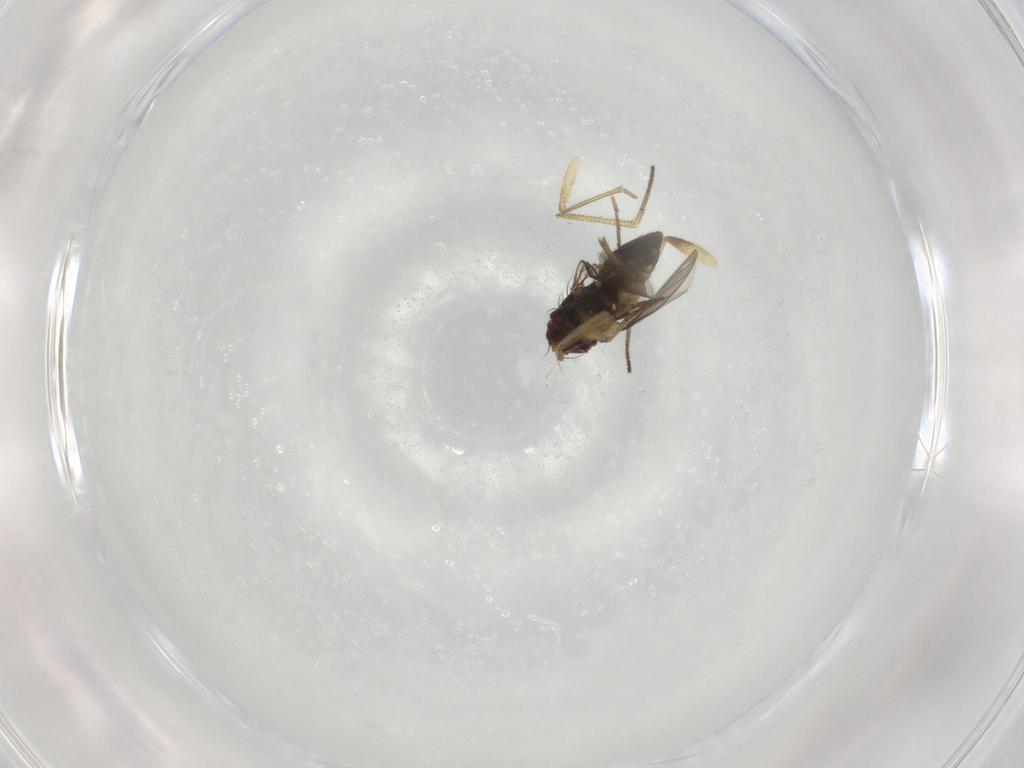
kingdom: Animalia
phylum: Arthropoda
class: Insecta
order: Diptera
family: Dolichopodidae
